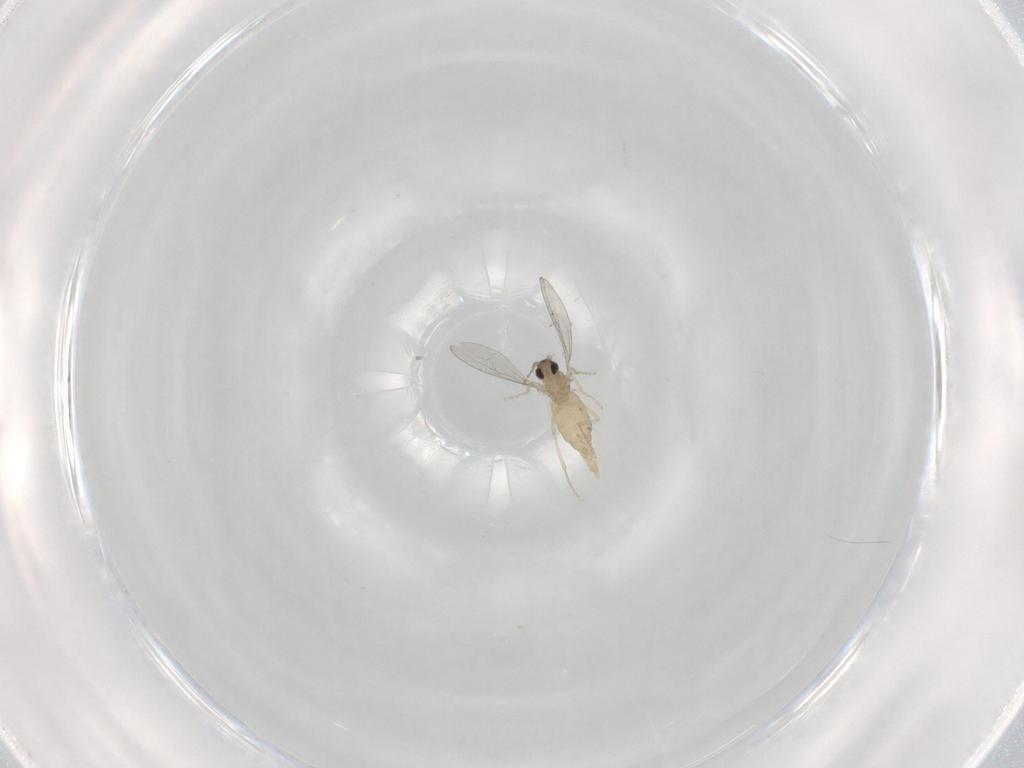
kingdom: Animalia
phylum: Arthropoda
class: Insecta
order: Diptera
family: Cecidomyiidae
